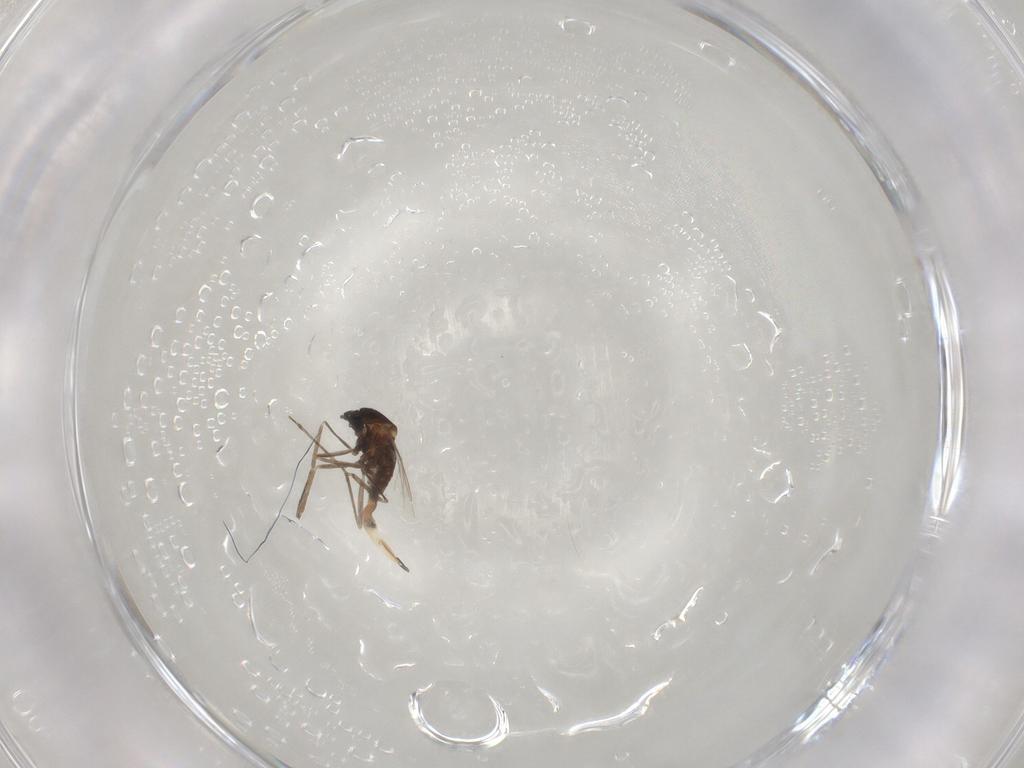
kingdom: Animalia
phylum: Arthropoda
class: Insecta
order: Diptera
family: Cecidomyiidae
